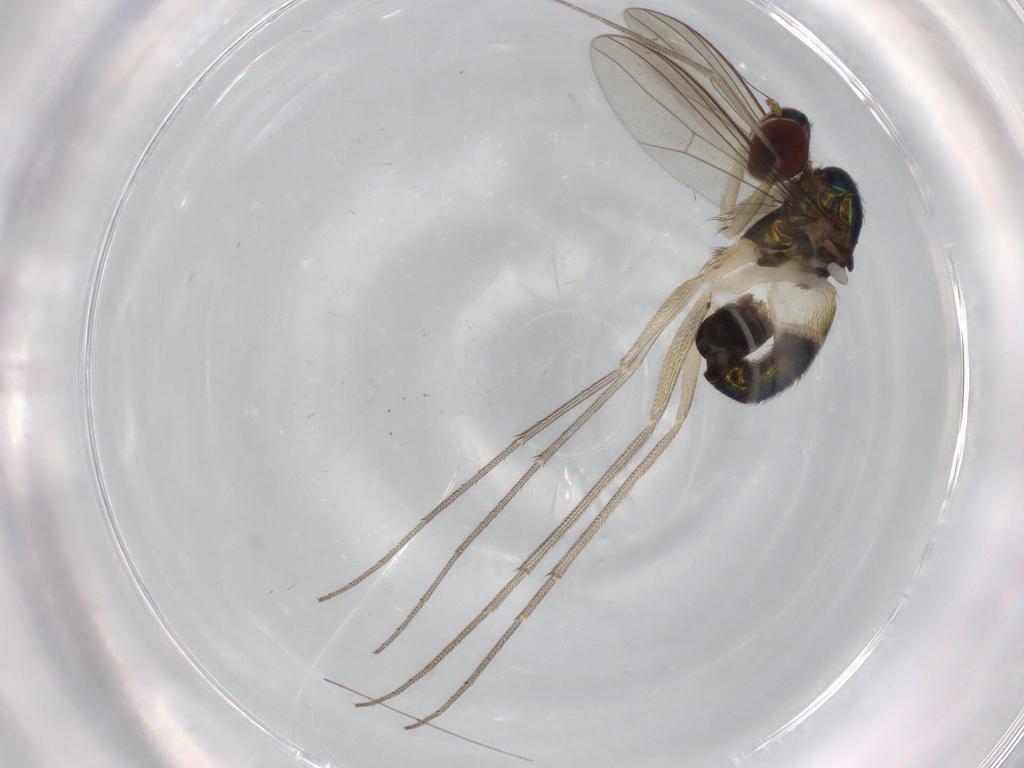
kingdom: Animalia
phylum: Arthropoda
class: Insecta
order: Diptera
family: Dolichopodidae
